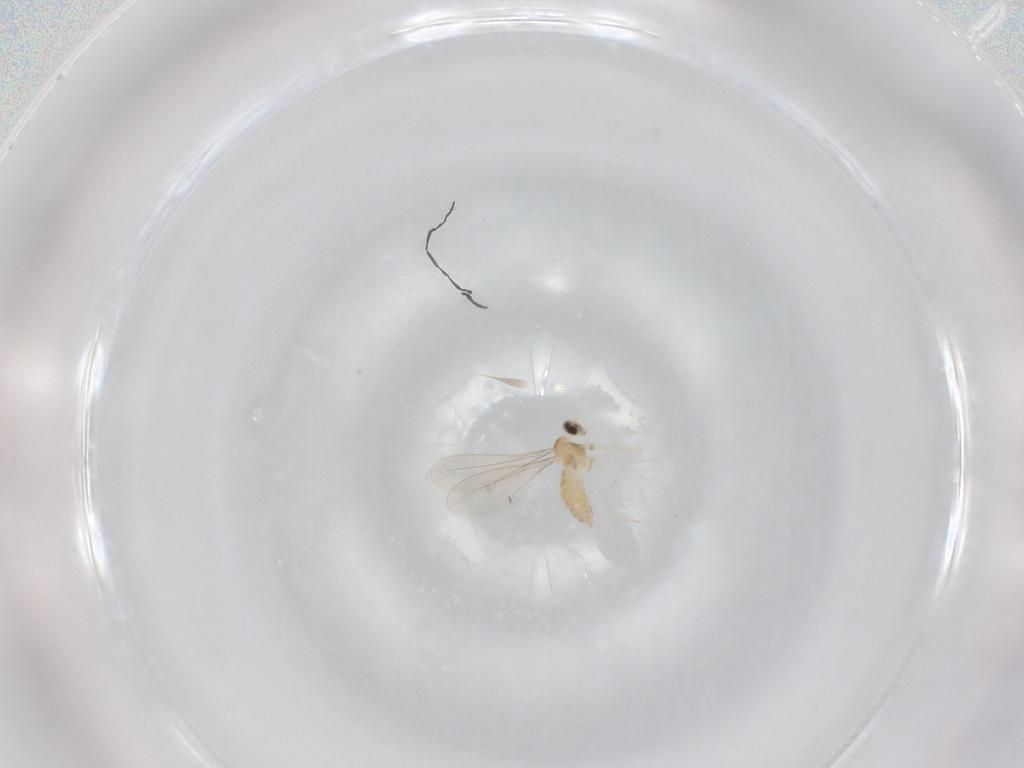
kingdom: Animalia
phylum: Arthropoda
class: Insecta
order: Diptera
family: Cecidomyiidae
